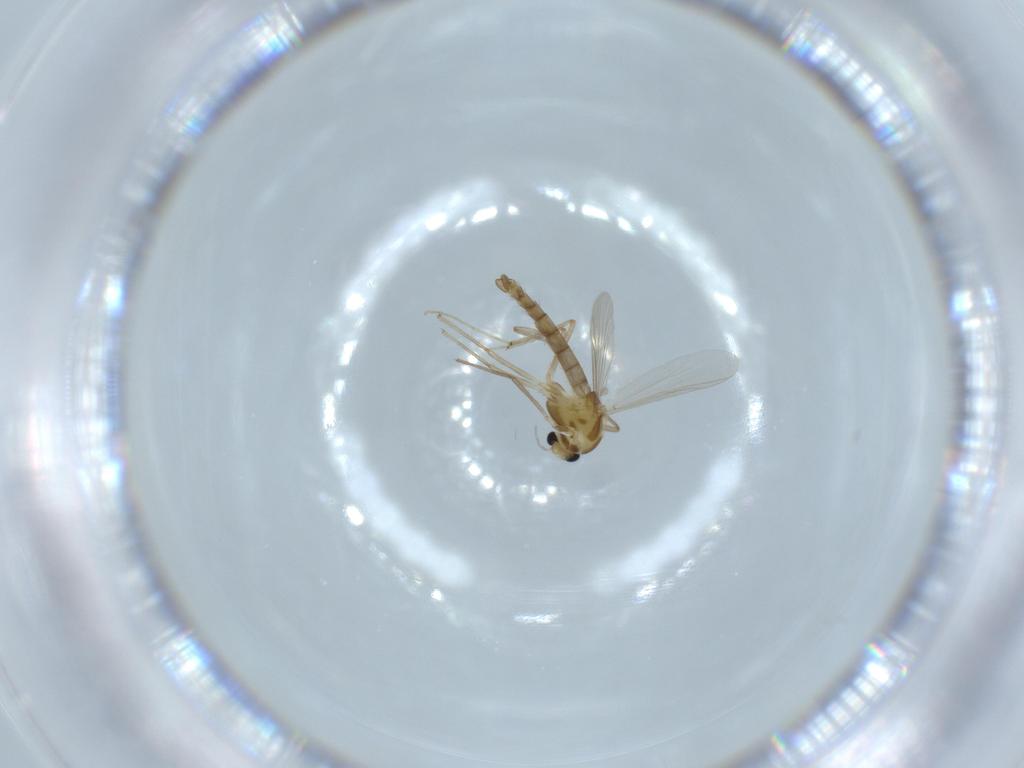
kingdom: Animalia
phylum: Arthropoda
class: Insecta
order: Diptera
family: Chironomidae
